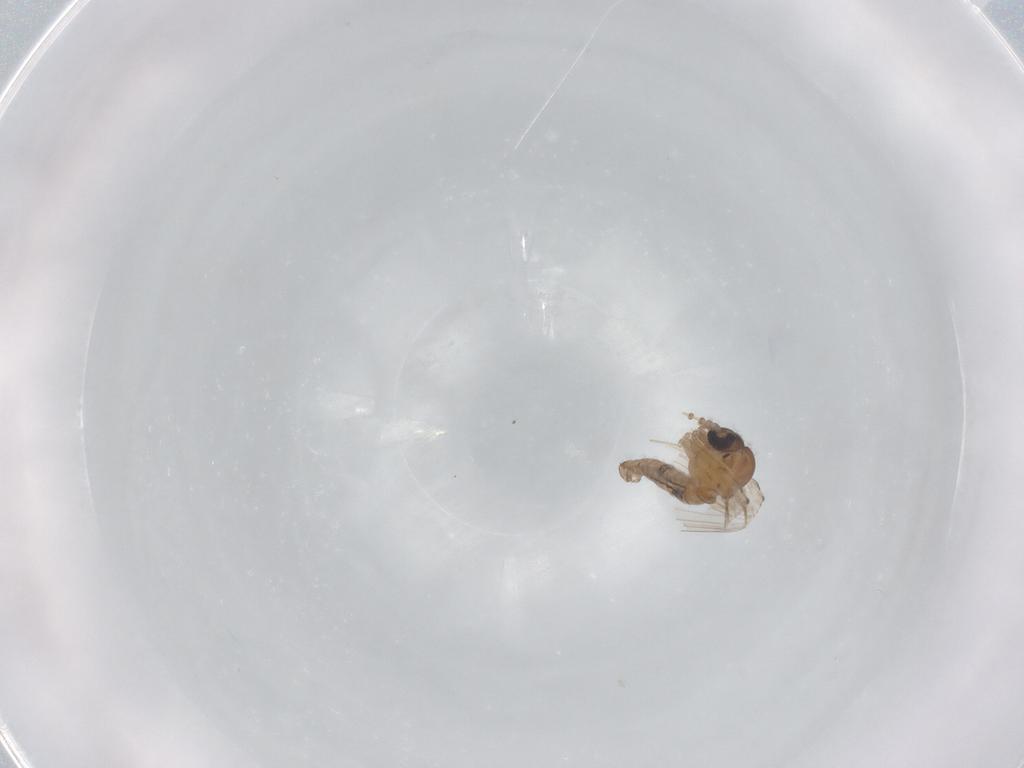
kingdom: Animalia
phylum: Arthropoda
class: Insecta
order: Diptera
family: Psychodidae
